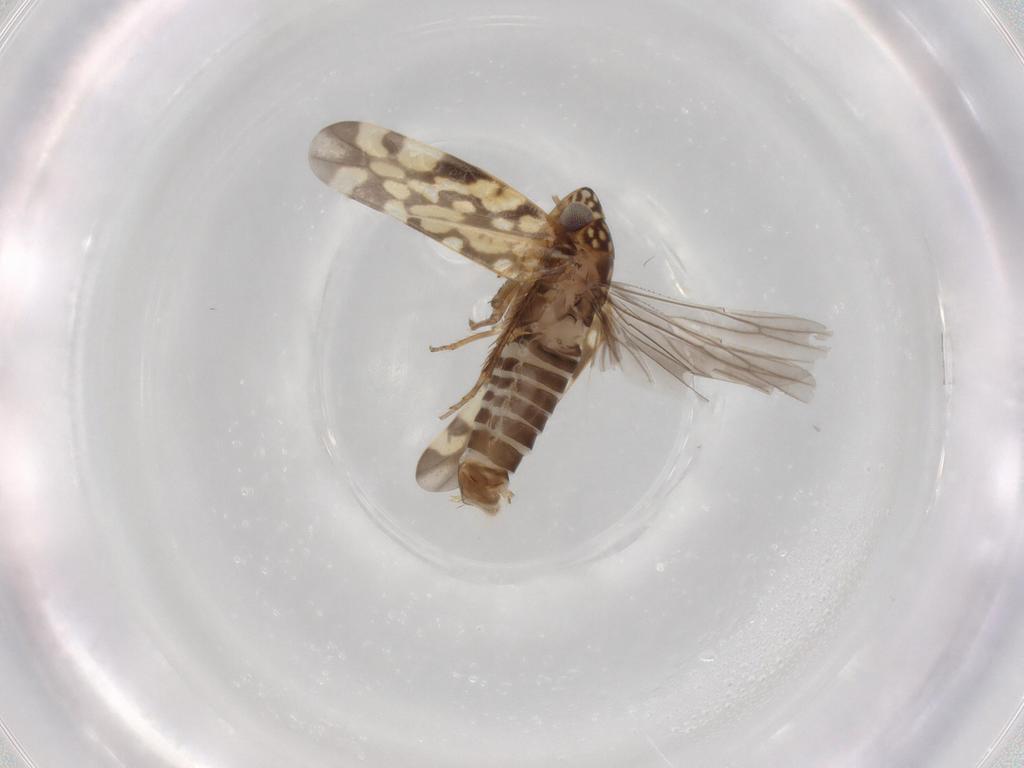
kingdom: Animalia
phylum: Arthropoda
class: Insecta
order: Hemiptera
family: Cicadellidae
